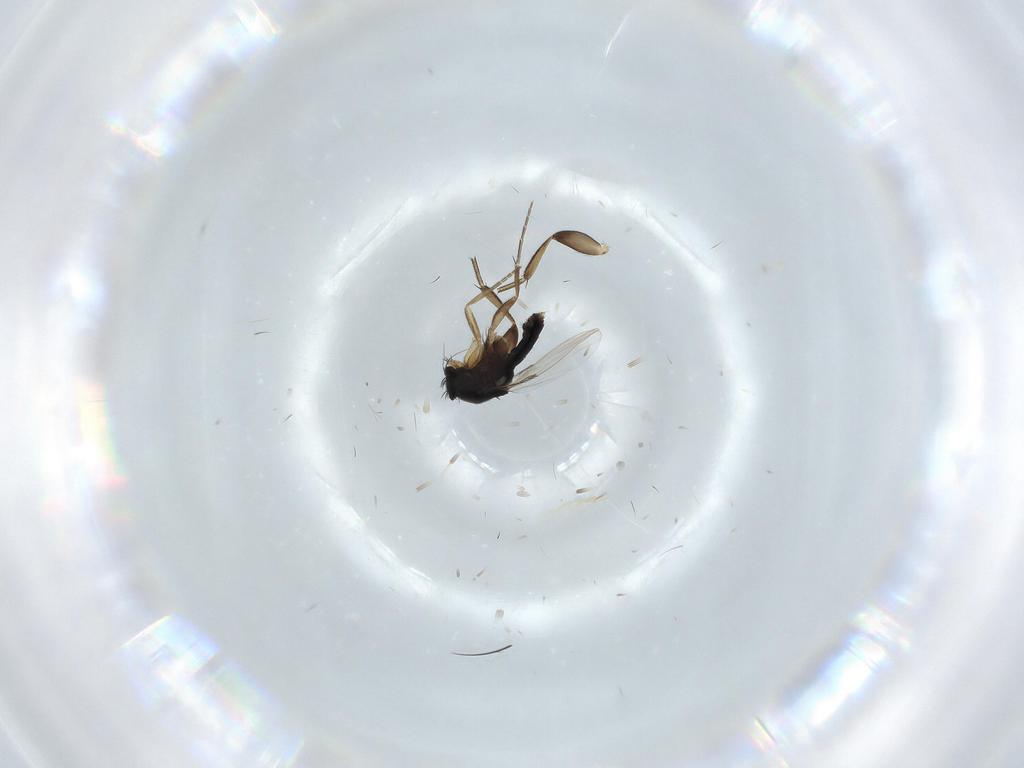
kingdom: Animalia
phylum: Arthropoda
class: Insecta
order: Diptera
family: Phoridae
